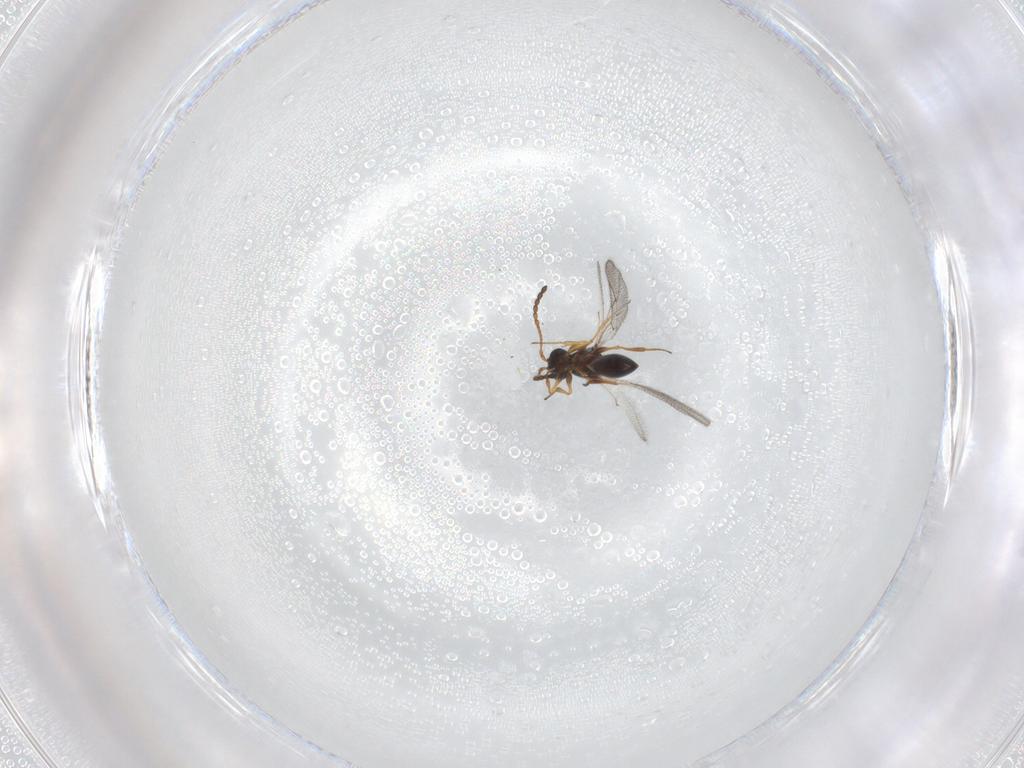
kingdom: Animalia
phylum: Arthropoda
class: Insecta
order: Hymenoptera
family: Figitidae
